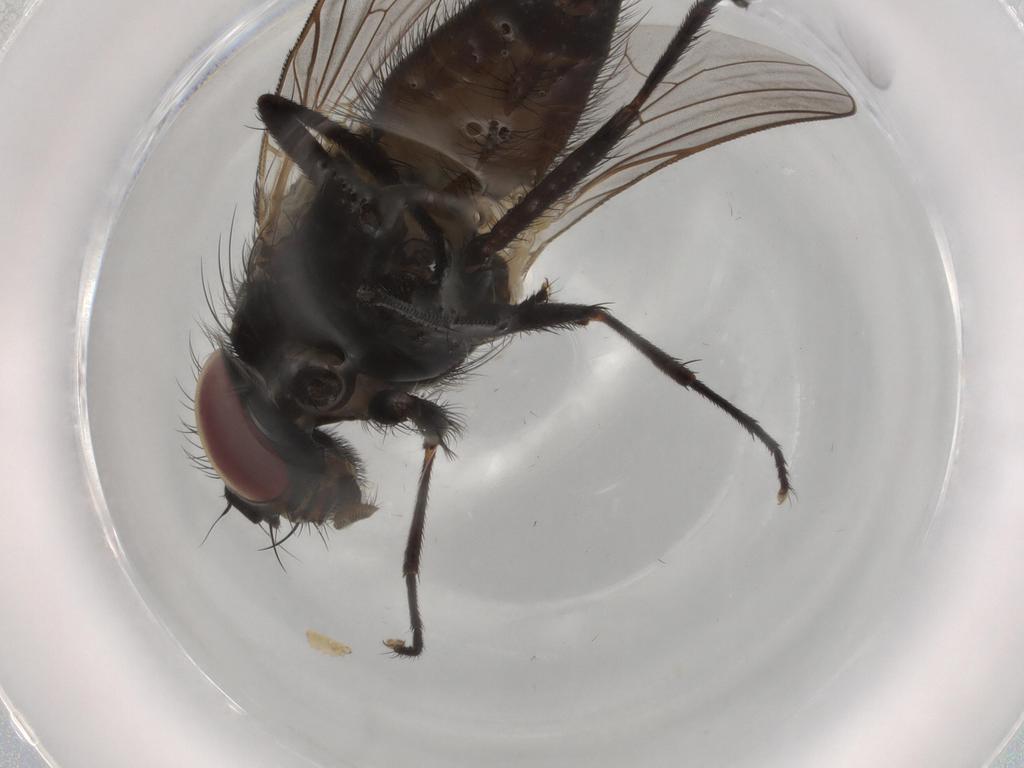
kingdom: Animalia
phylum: Arthropoda
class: Insecta
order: Diptera
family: Fannia
